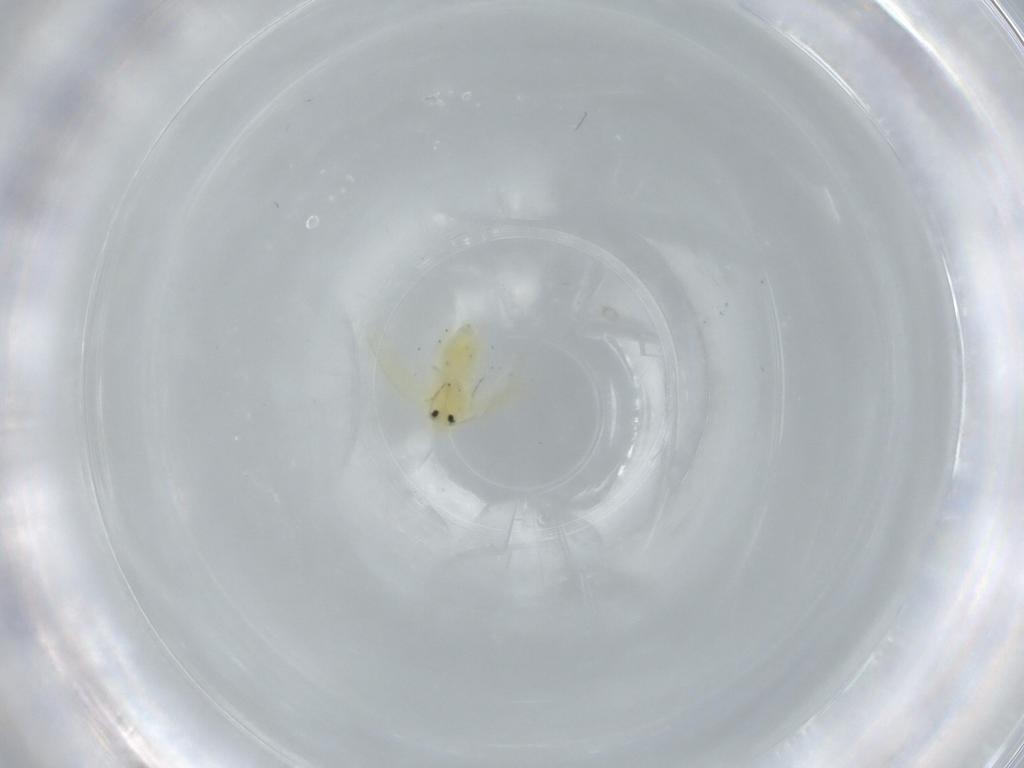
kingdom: Animalia
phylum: Arthropoda
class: Insecta
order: Hemiptera
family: Aleyrodidae
